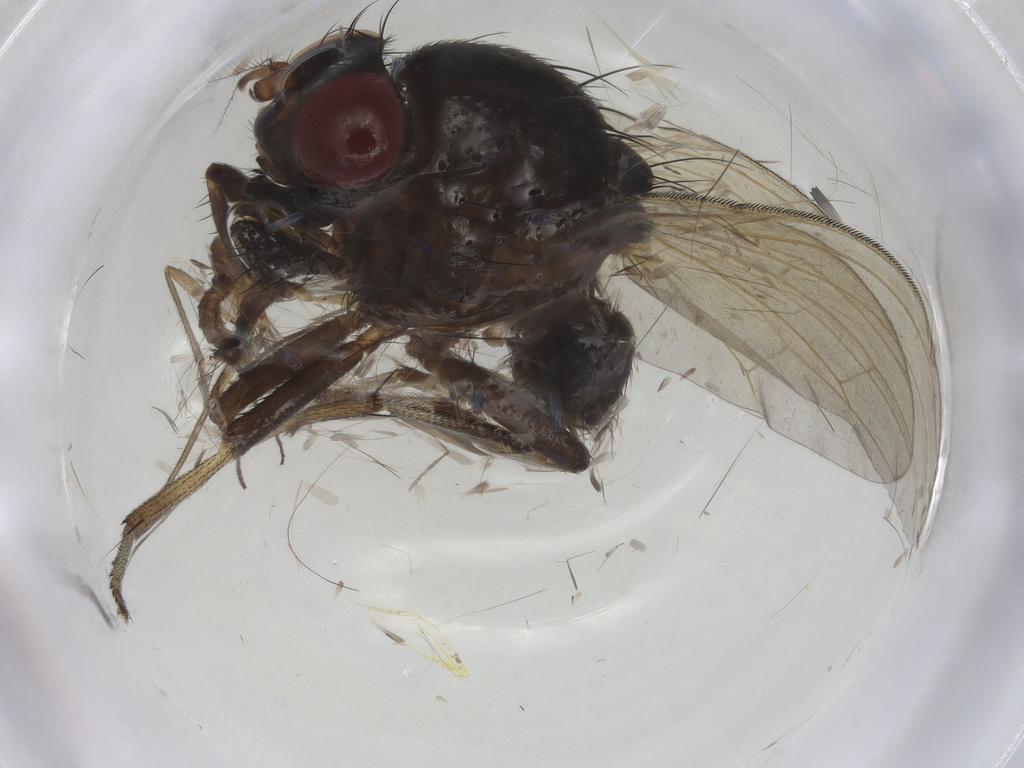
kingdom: Animalia
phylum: Arthropoda
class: Insecta
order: Diptera
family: Sciaridae
